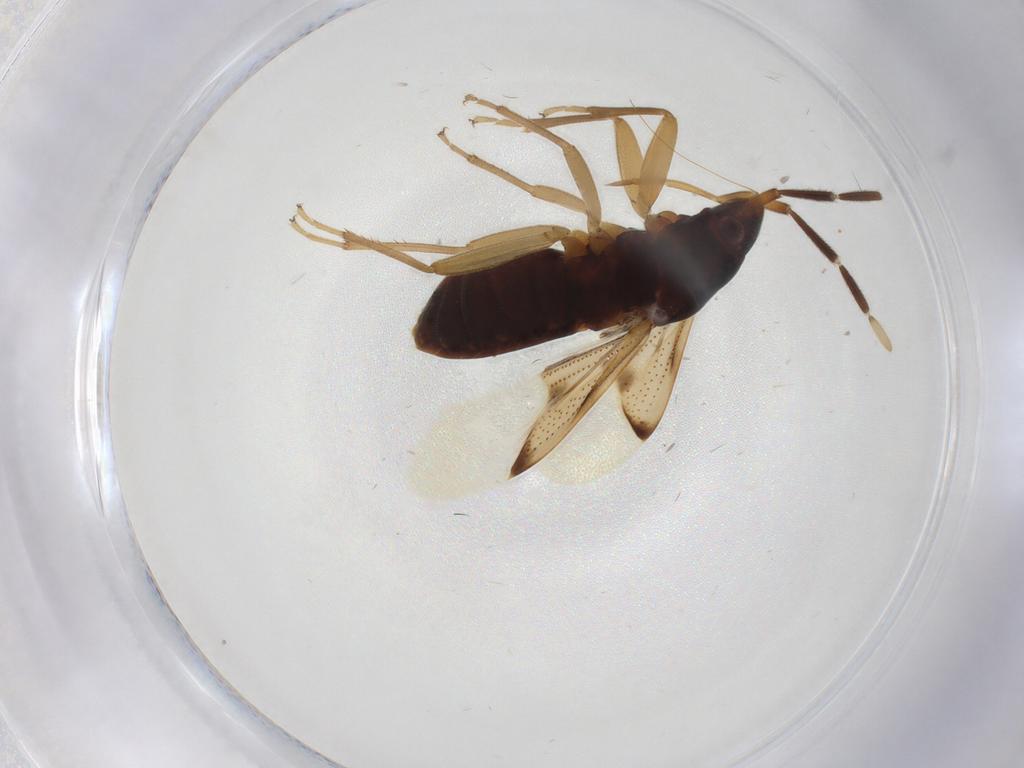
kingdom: Animalia
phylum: Arthropoda
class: Insecta
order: Hemiptera
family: Rhyparochromidae
